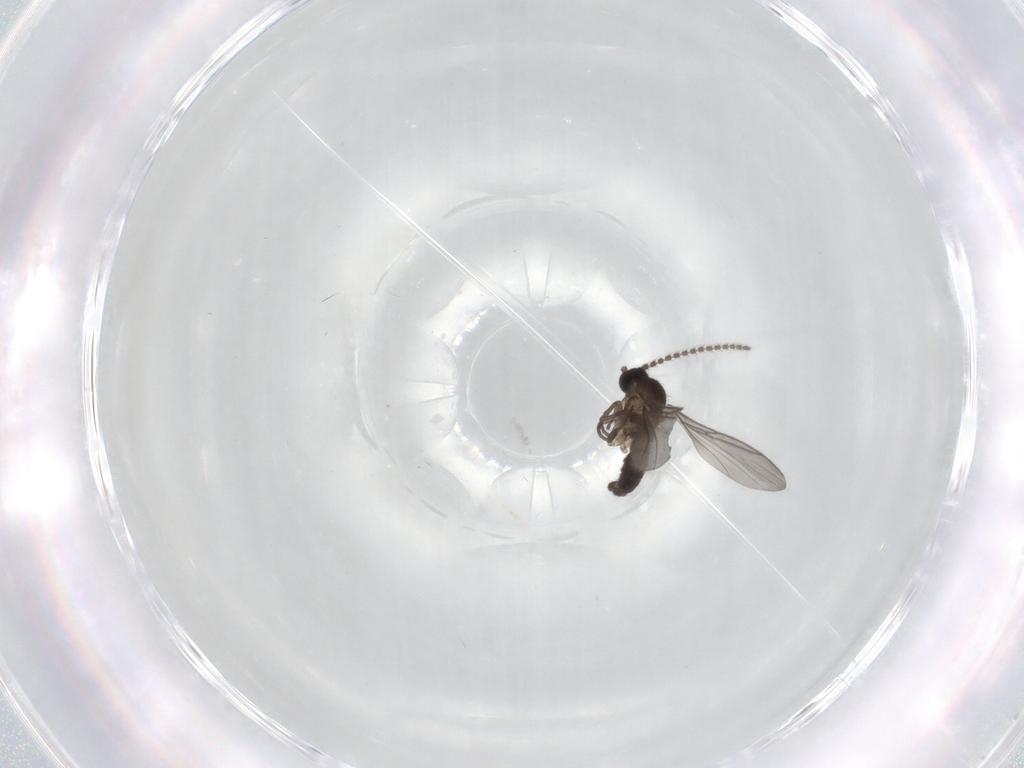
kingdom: Animalia
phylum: Arthropoda
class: Insecta
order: Diptera
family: Sciaridae
